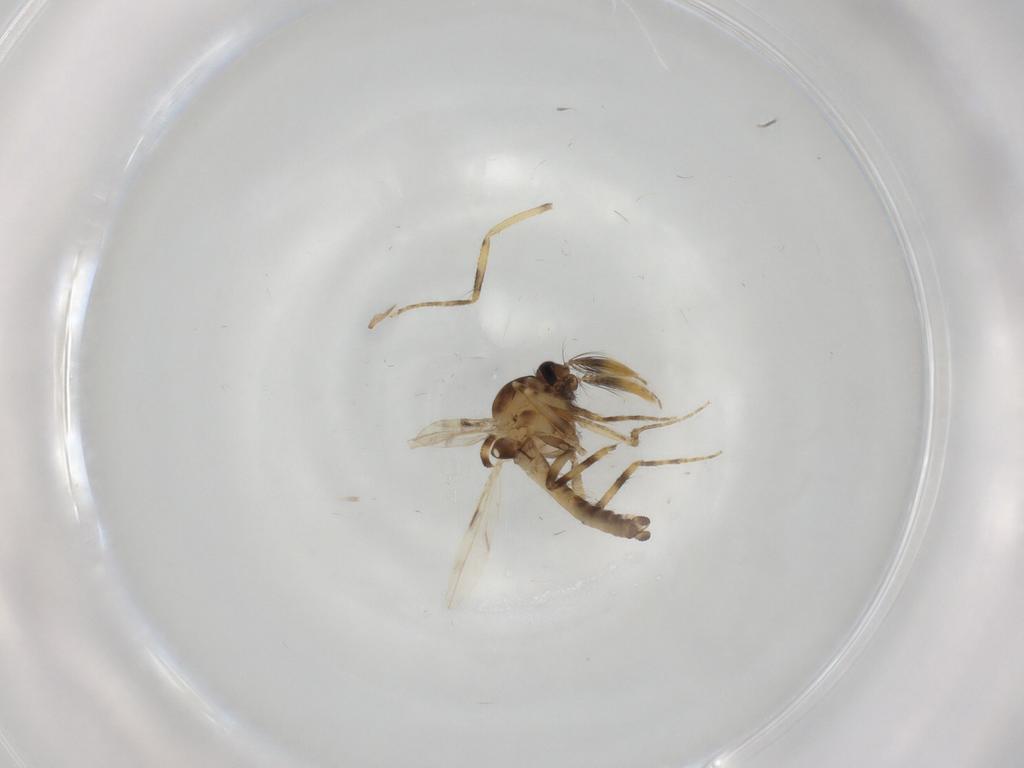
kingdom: Animalia
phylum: Arthropoda
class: Insecta
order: Diptera
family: Ceratopogonidae
